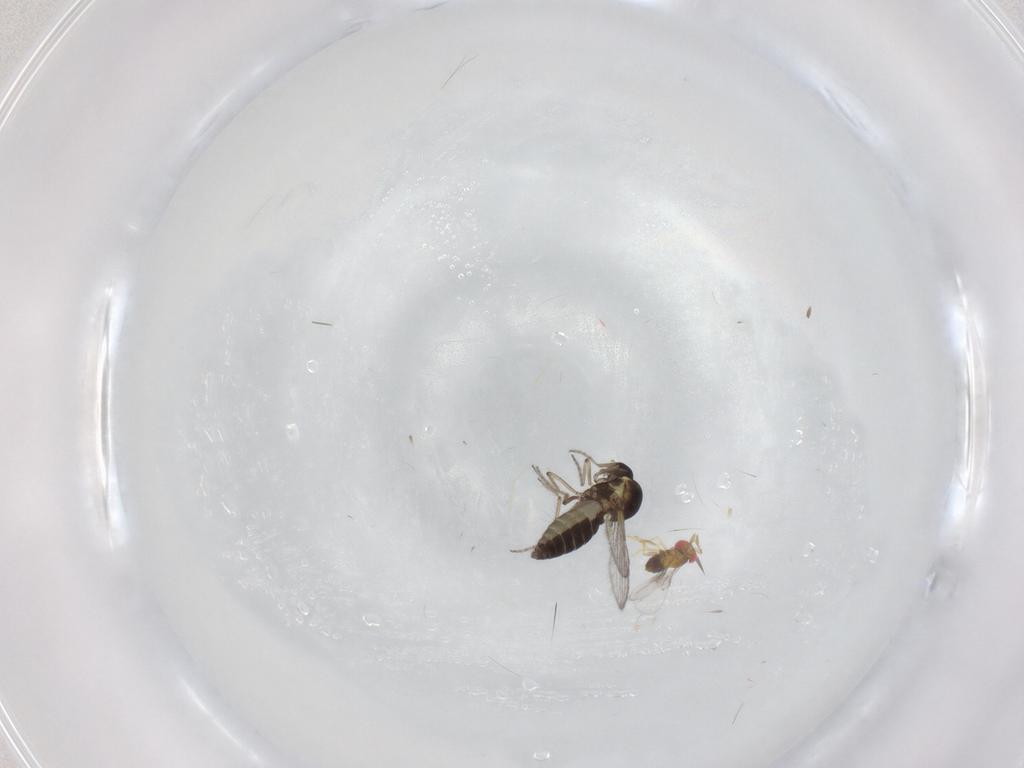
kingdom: Animalia
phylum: Arthropoda
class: Insecta
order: Diptera
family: Ceratopogonidae
